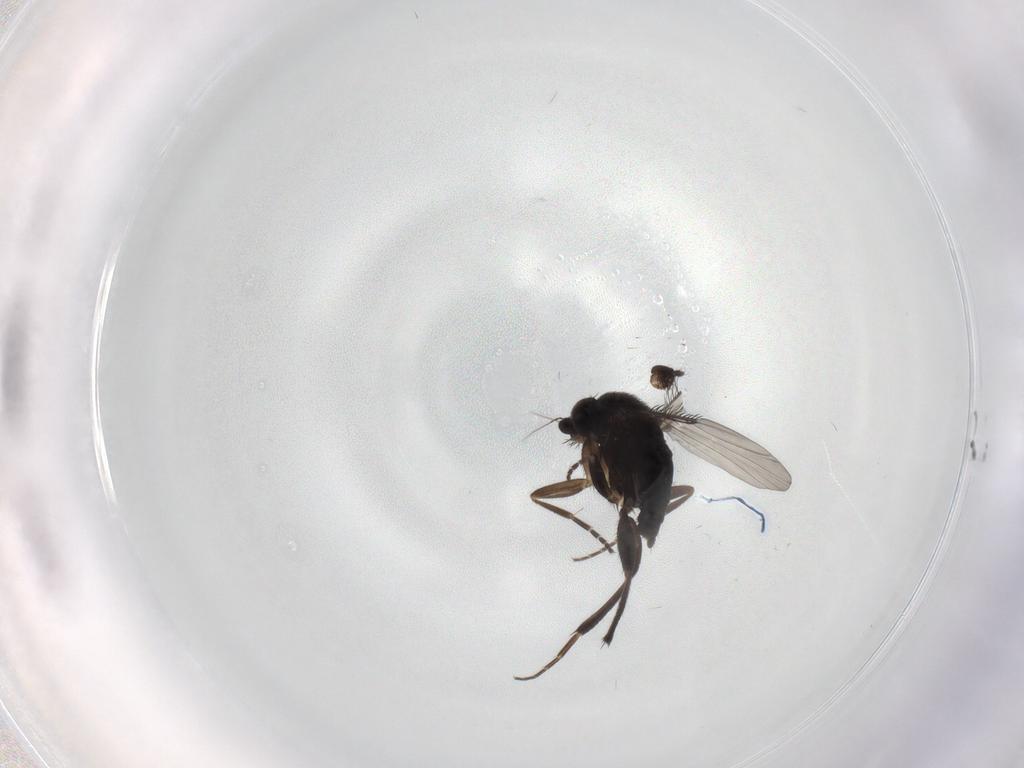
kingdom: Animalia
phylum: Arthropoda
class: Insecta
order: Diptera
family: Phoridae
